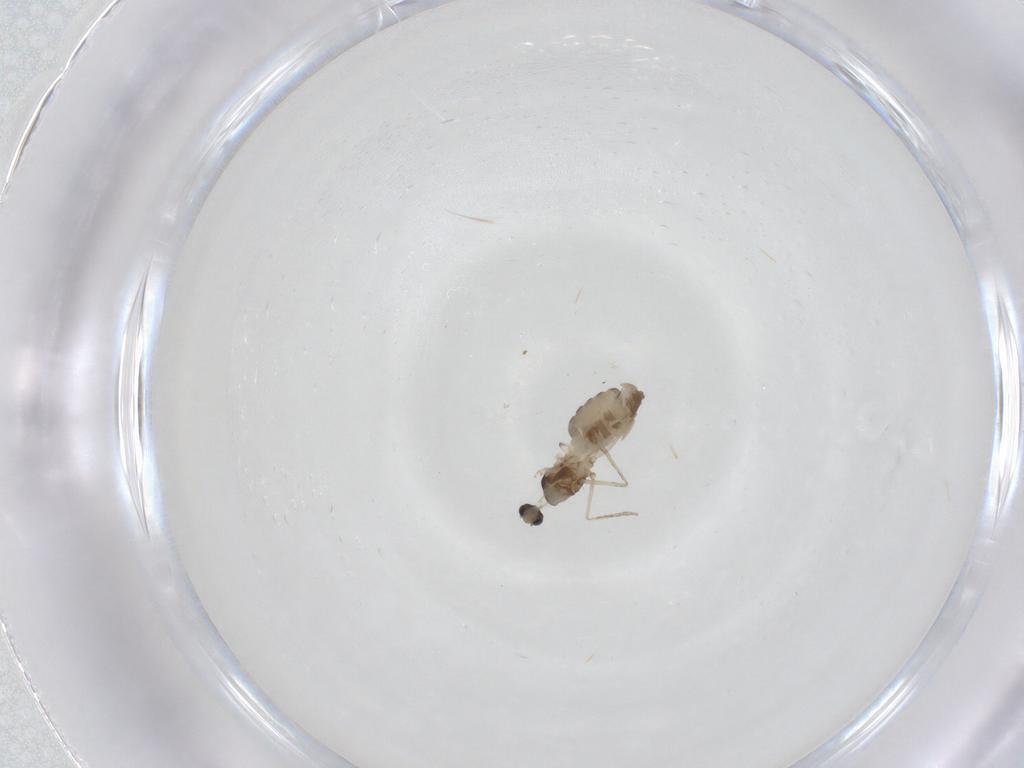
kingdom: Animalia
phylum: Arthropoda
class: Insecta
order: Diptera
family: Cecidomyiidae
